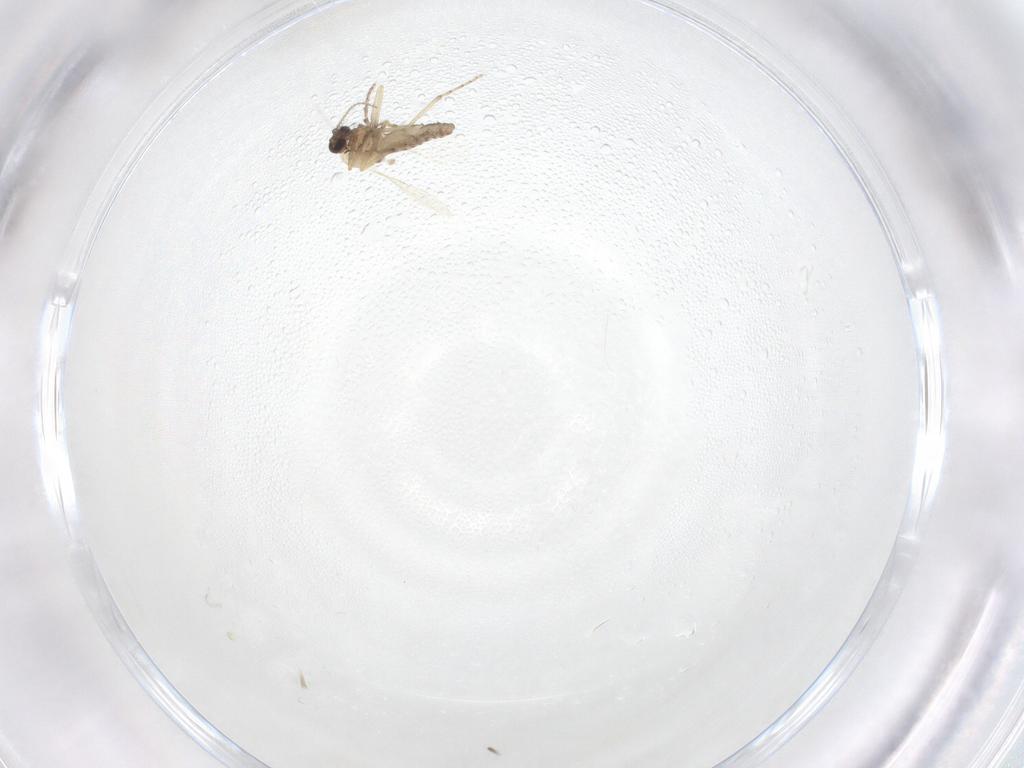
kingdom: Animalia
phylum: Arthropoda
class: Insecta
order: Diptera
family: Ceratopogonidae
